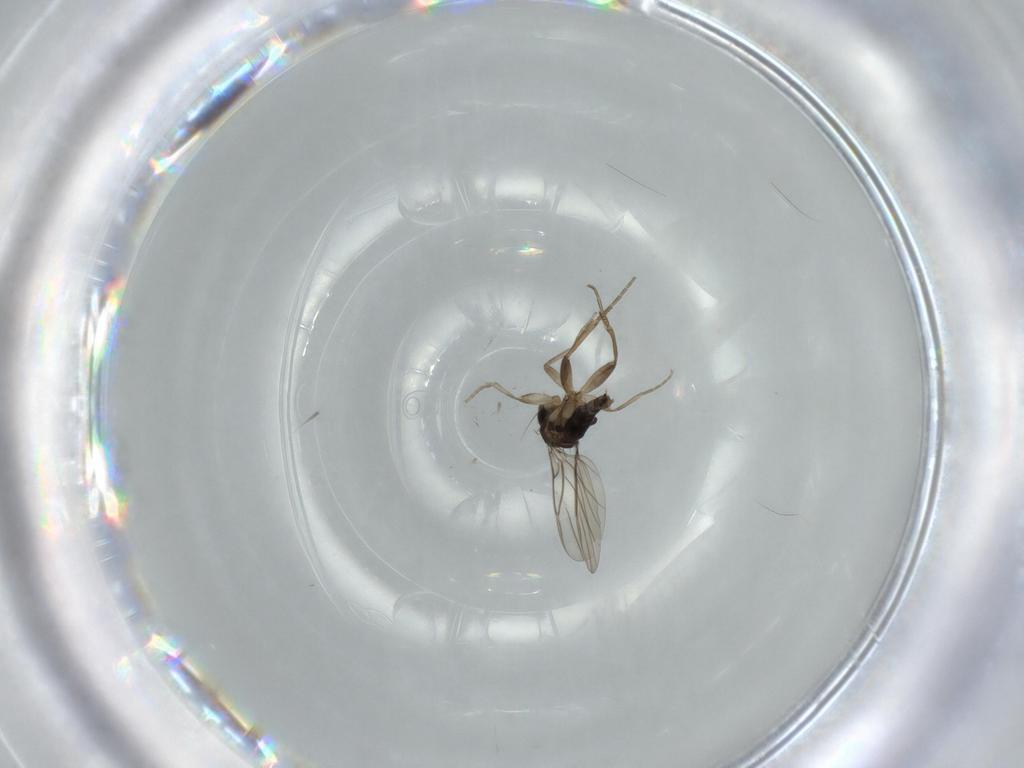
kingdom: Animalia
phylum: Arthropoda
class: Insecta
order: Diptera
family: Phoridae
